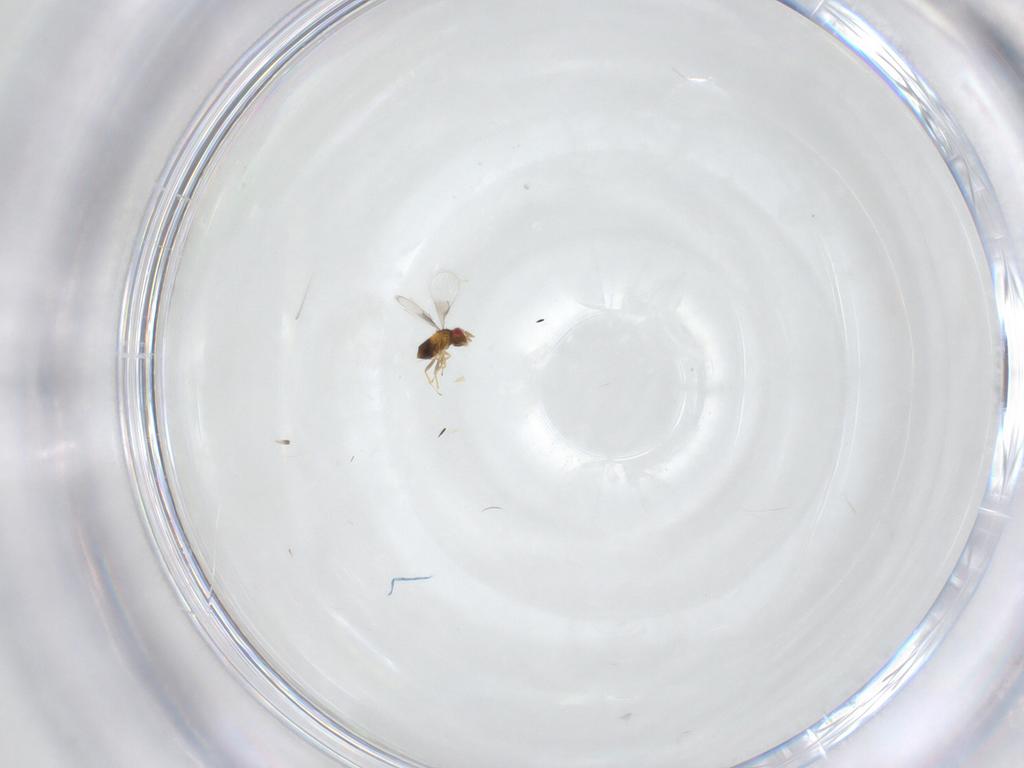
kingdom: Animalia
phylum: Arthropoda
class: Insecta
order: Hymenoptera
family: Trichogrammatidae
